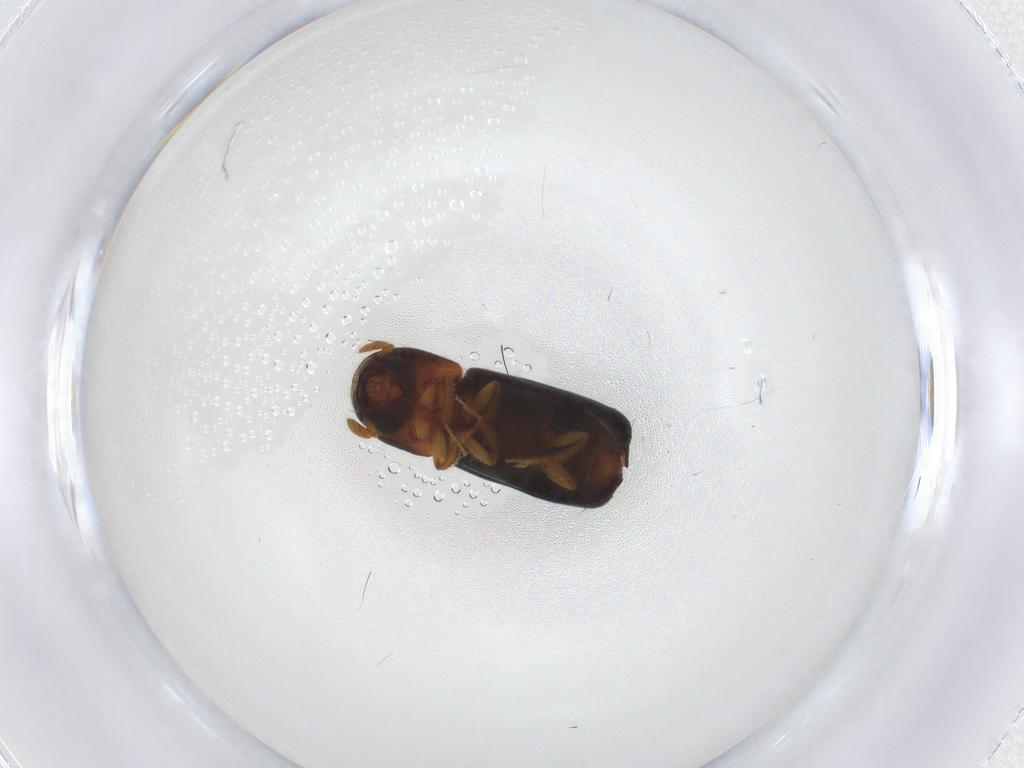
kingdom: Animalia
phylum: Arthropoda
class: Insecta
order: Coleoptera
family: Curculionidae
